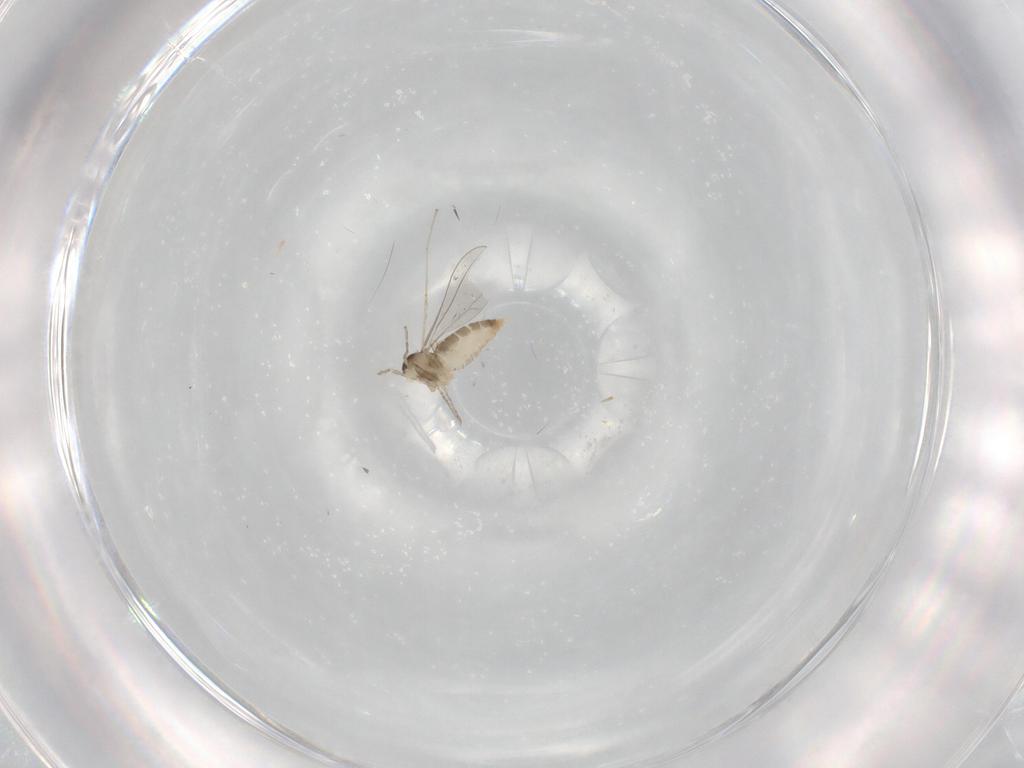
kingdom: Animalia
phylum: Arthropoda
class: Insecta
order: Diptera
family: Cecidomyiidae
